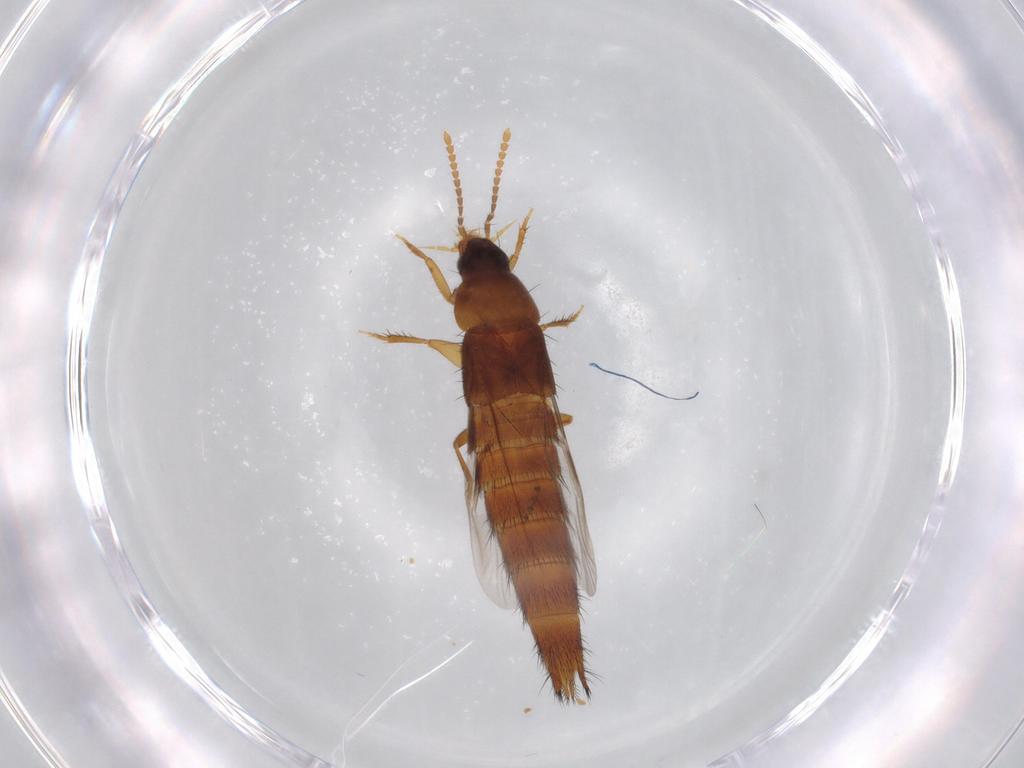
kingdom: Animalia
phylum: Arthropoda
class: Insecta
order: Coleoptera
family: Staphylinidae
